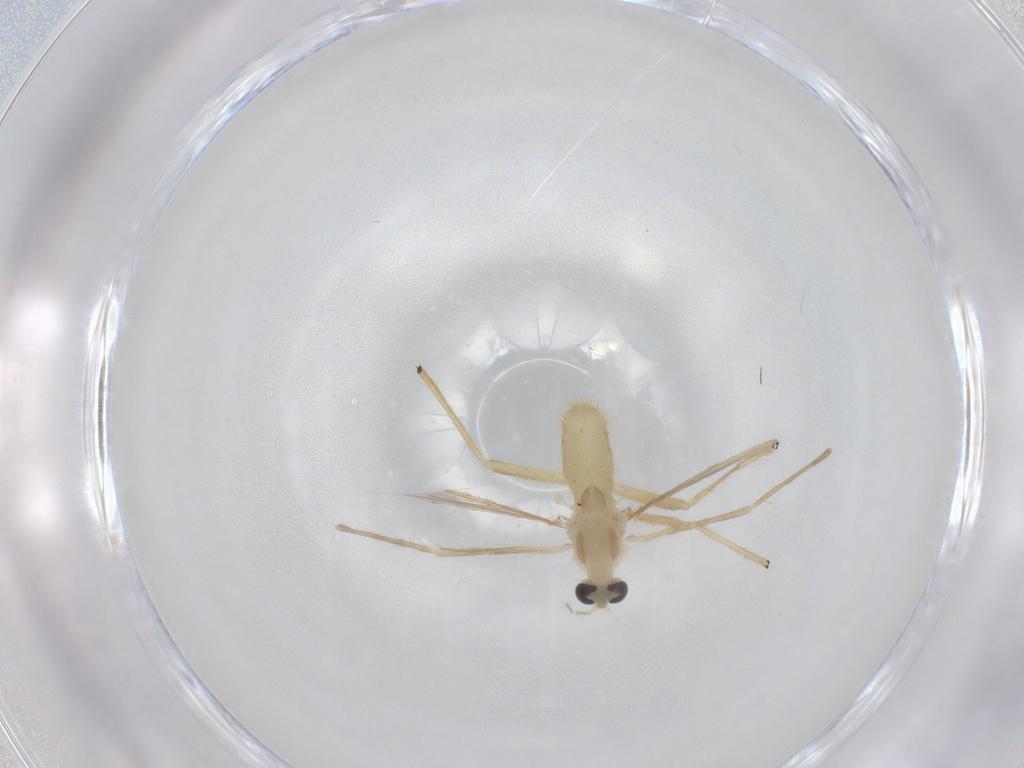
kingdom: Animalia
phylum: Arthropoda
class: Insecta
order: Diptera
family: Chironomidae
